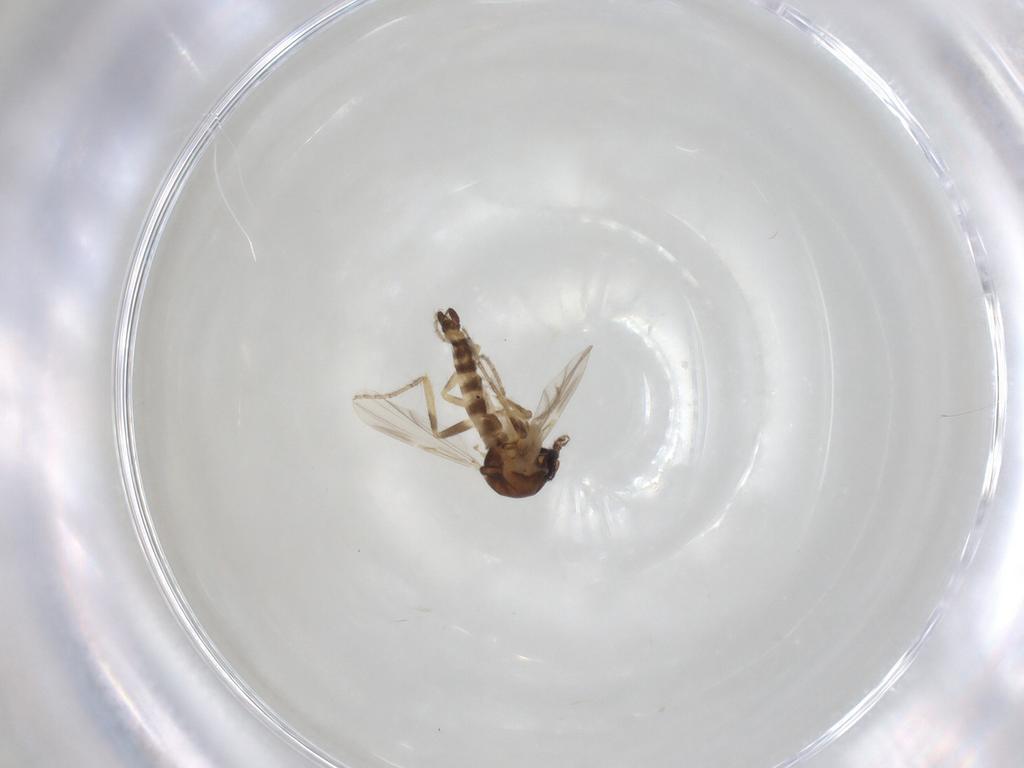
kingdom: Animalia
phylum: Arthropoda
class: Insecta
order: Diptera
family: Ceratopogonidae
